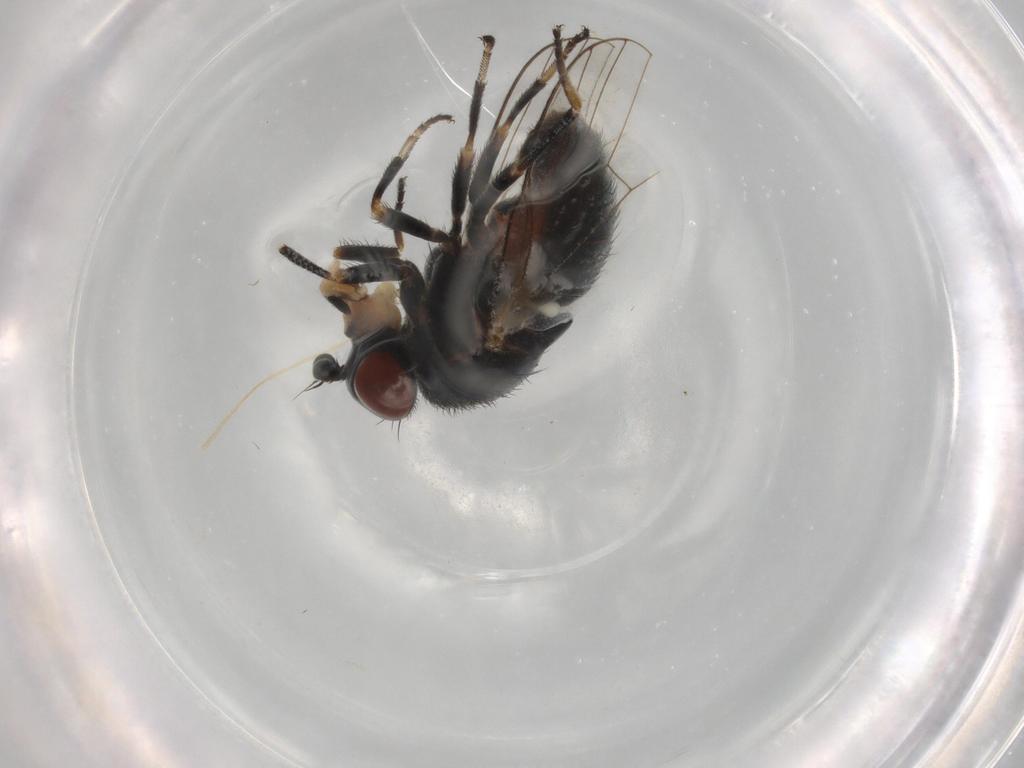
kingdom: Animalia
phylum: Arthropoda
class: Insecta
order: Diptera
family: Chamaemyiidae
